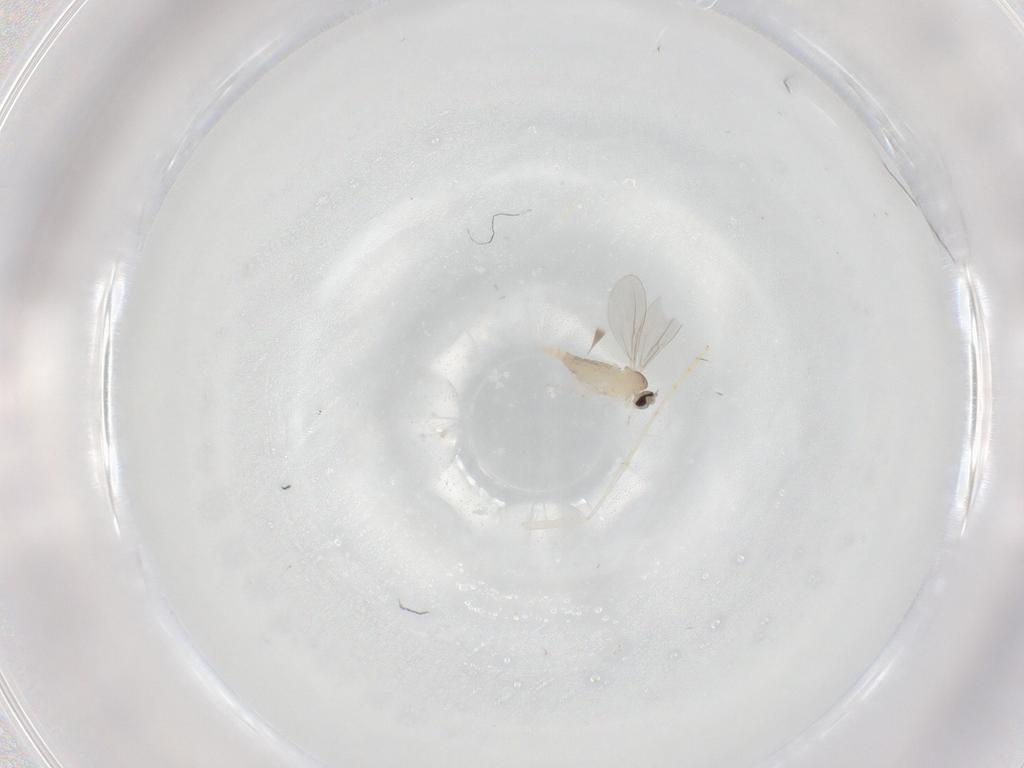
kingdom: Animalia
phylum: Arthropoda
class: Insecta
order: Diptera
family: Cecidomyiidae
